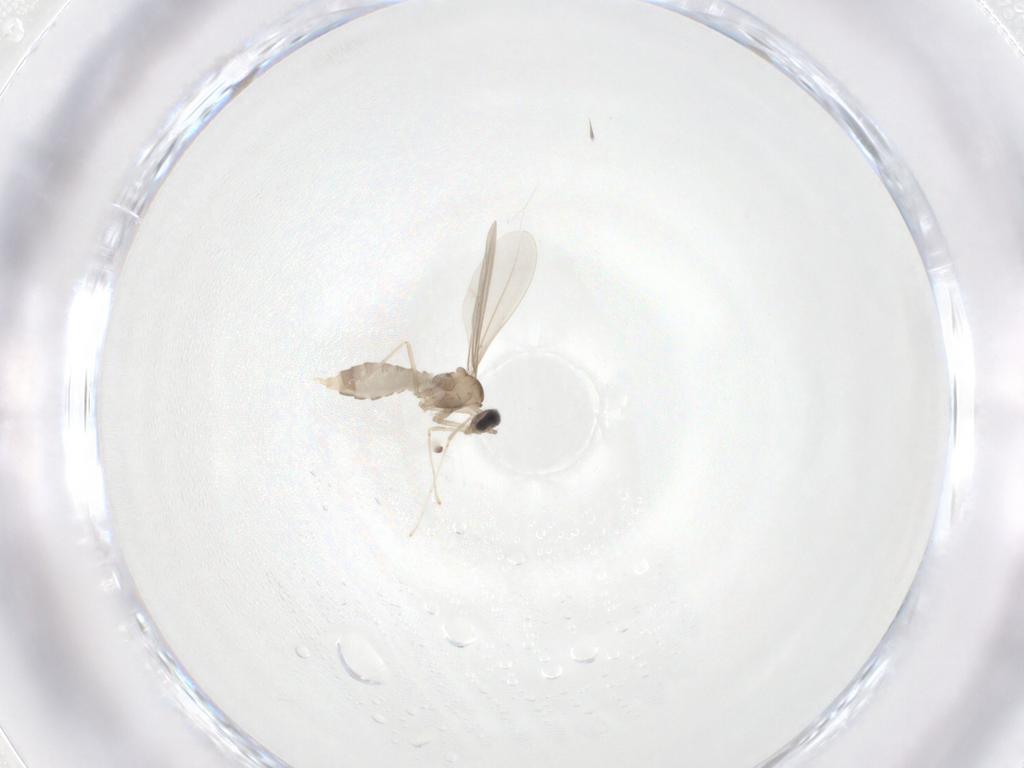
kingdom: Animalia
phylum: Arthropoda
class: Insecta
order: Diptera
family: Cecidomyiidae
